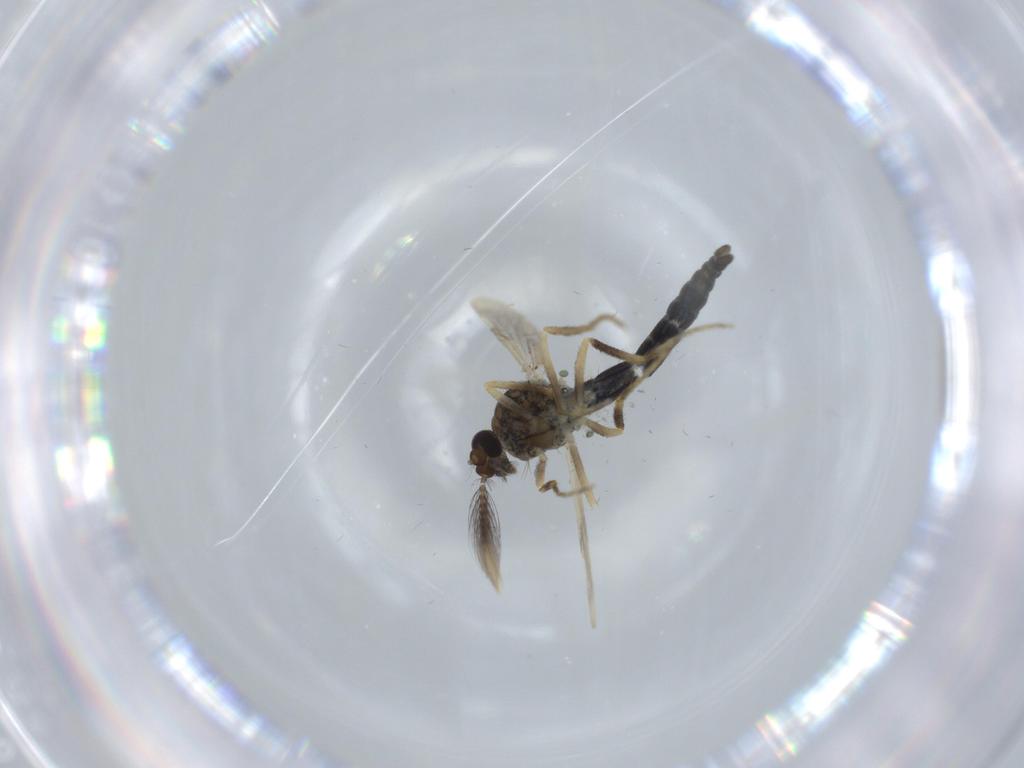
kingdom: Animalia
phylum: Arthropoda
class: Insecta
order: Diptera
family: Ceratopogonidae
